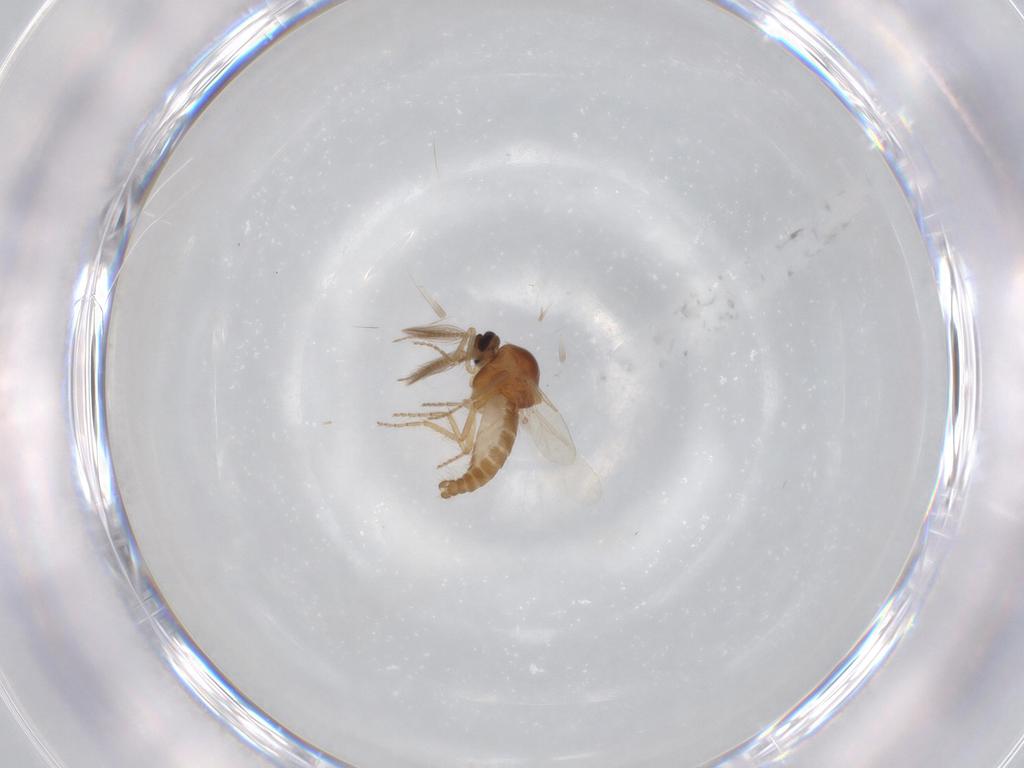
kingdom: Animalia
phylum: Arthropoda
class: Insecta
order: Diptera
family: Ceratopogonidae
